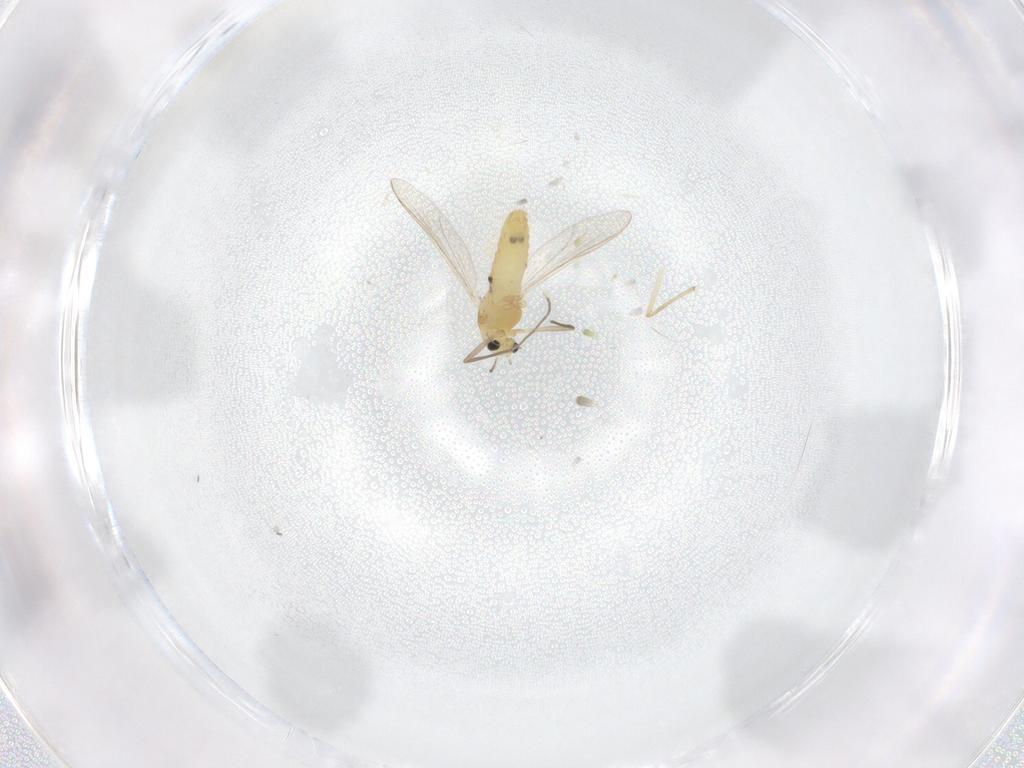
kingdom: Animalia
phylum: Arthropoda
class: Insecta
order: Diptera
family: Chironomidae
